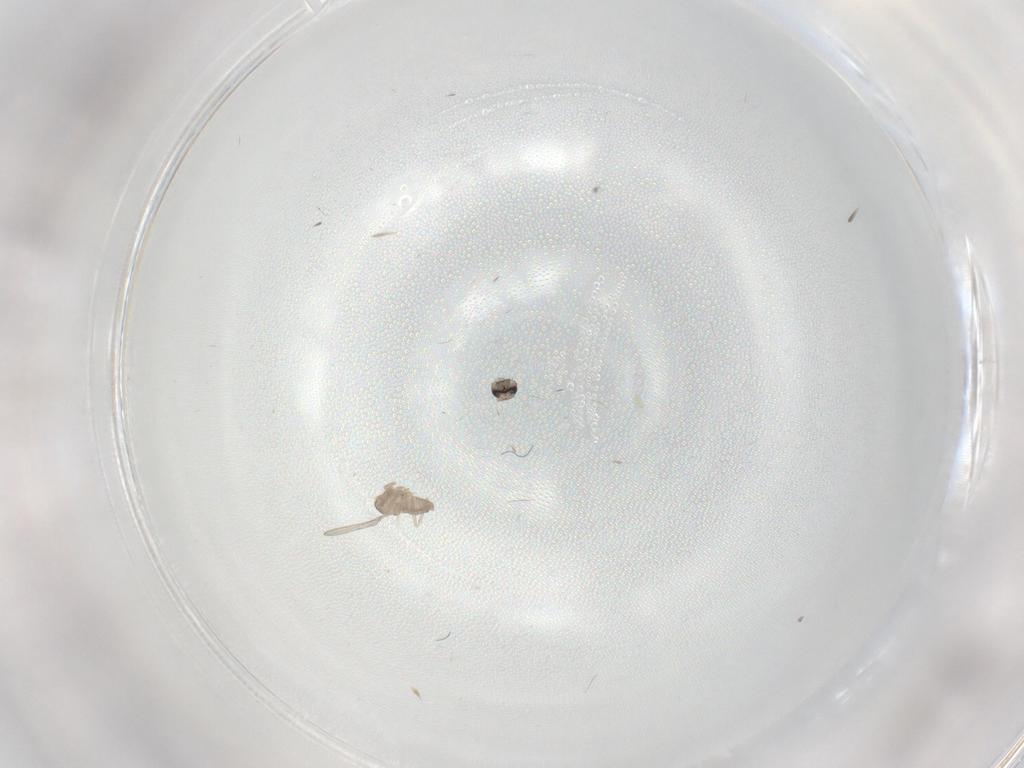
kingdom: Animalia
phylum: Arthropoda
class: Insecta
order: Diptera
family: Cecidomyiidae
